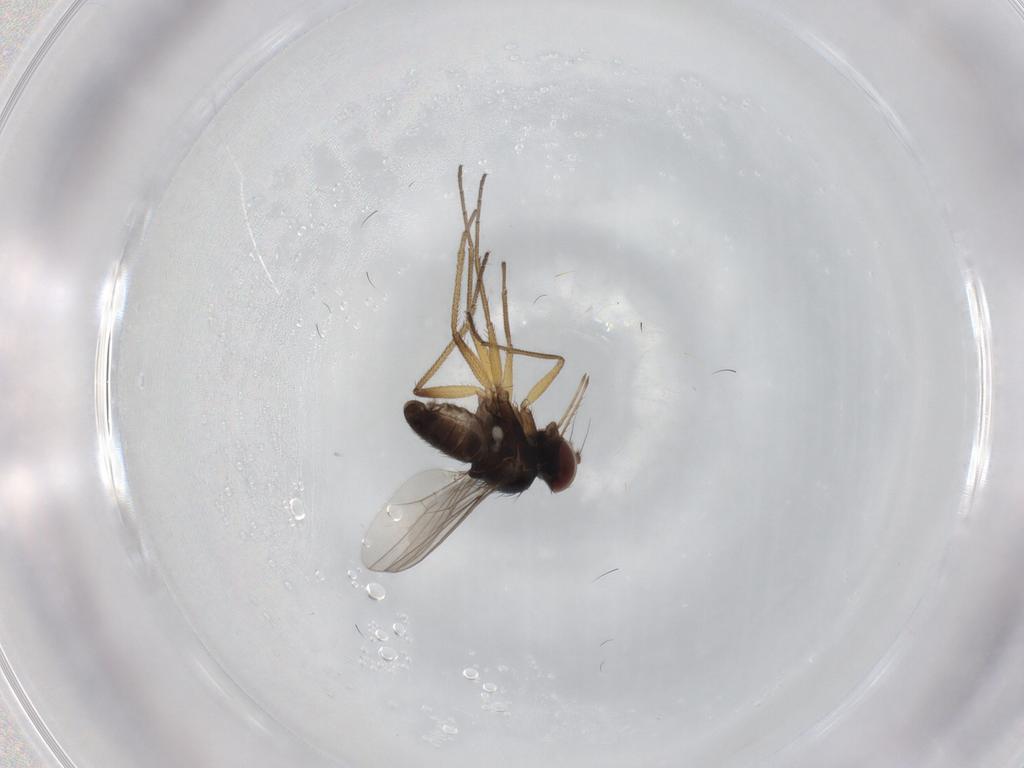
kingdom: Animalia
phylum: Arthropoda
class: Insecta
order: Diptera
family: Dolichopodidae
